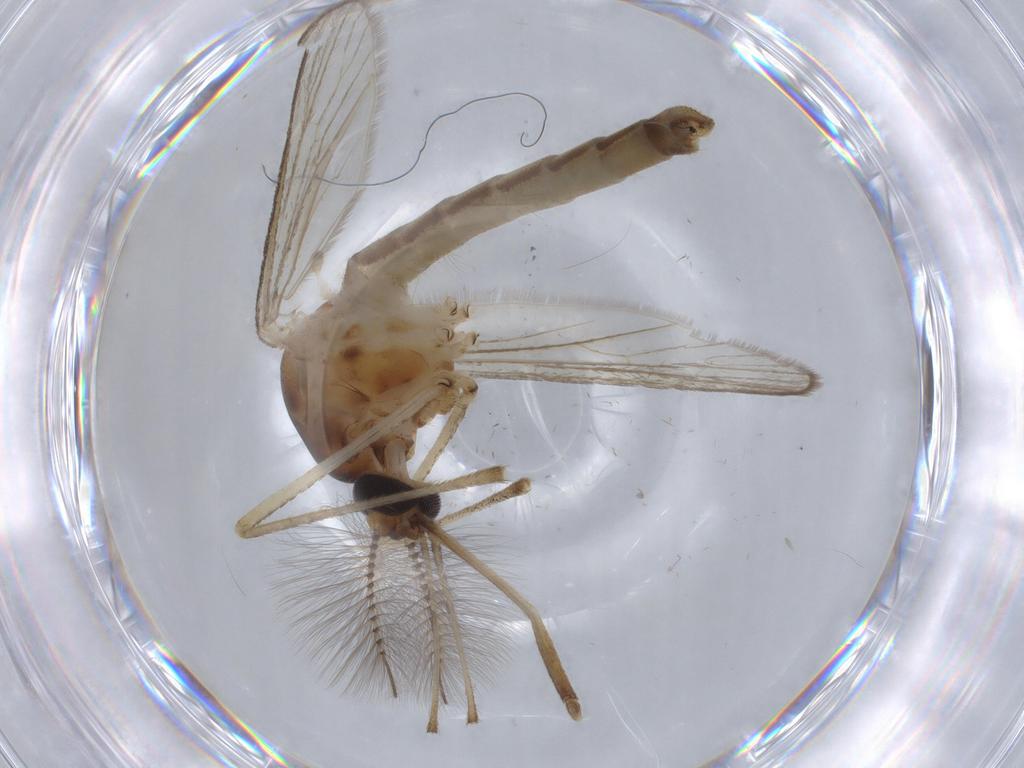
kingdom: Animalia
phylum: Arthropoda
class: Insecta
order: Diptera
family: Culicidae
